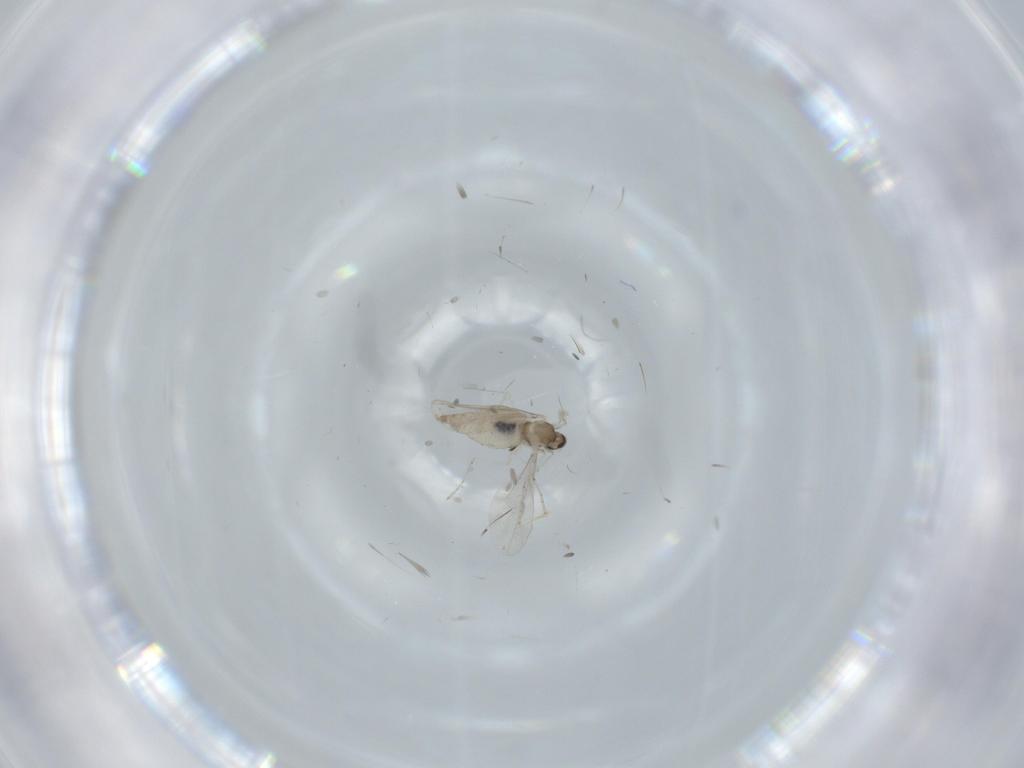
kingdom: Animalia
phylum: Arthropoda
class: Insecta
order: Diptera
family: Cecidomyiidae
